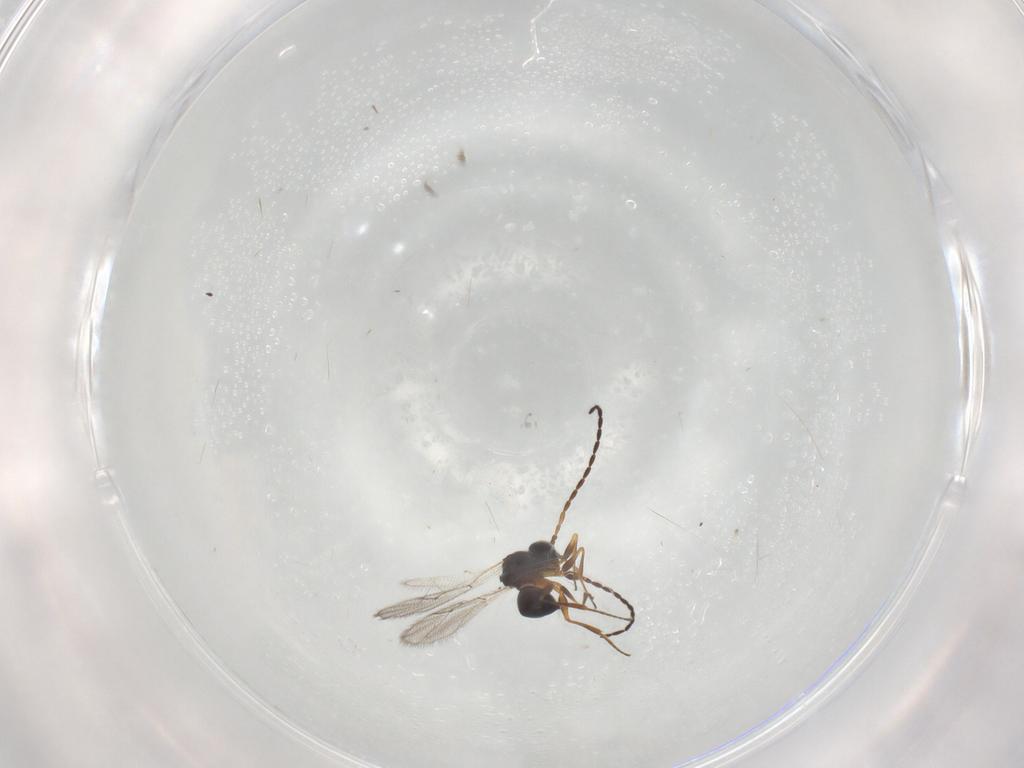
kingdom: Animalia
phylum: Arthropoda
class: Insecta
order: Hymenoptera
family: Figitidae
